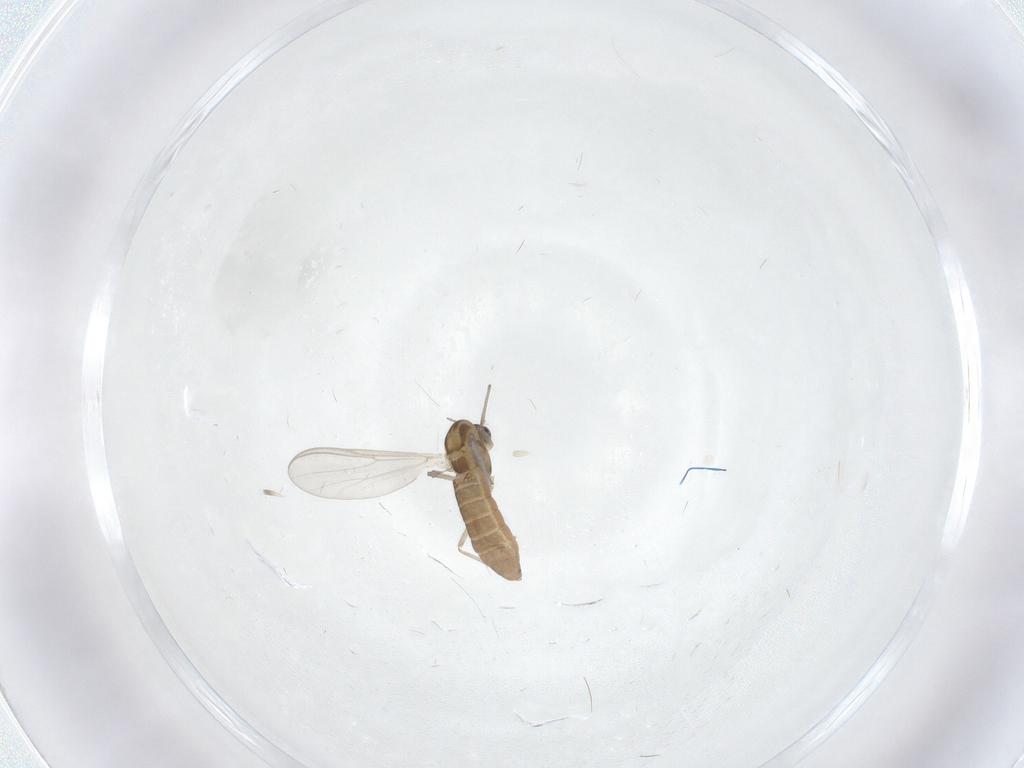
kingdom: Animalia
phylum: Arthropoda
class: Insecta
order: Diptera
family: Chironomidae
